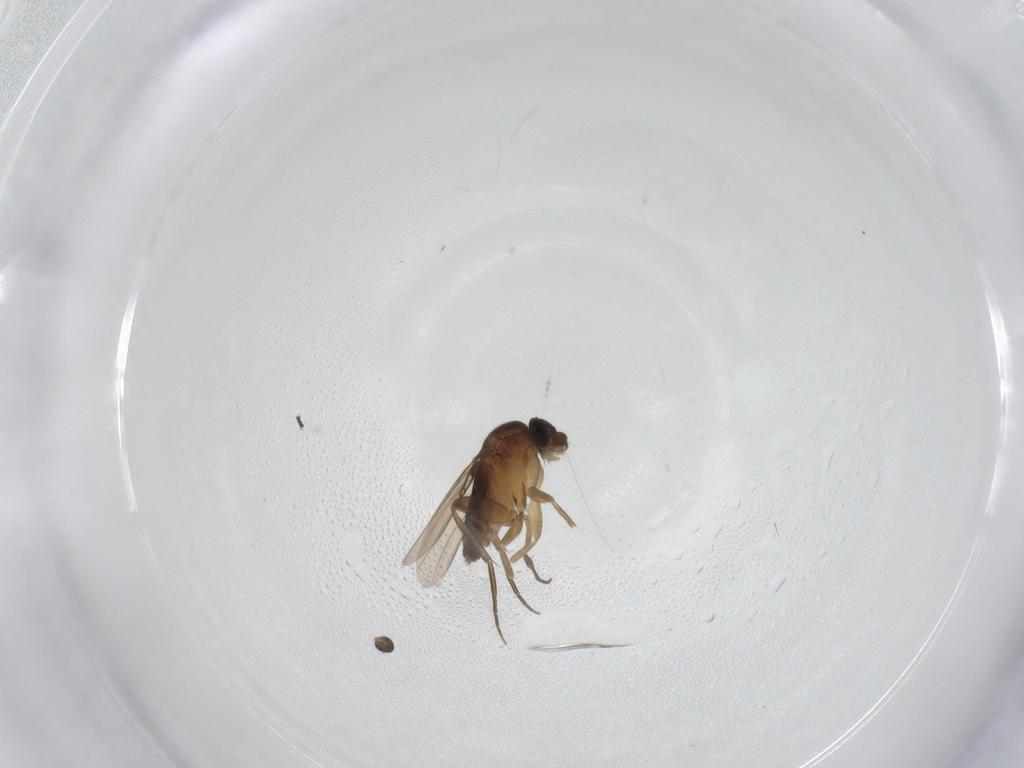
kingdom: Animalia
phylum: Arthropoda
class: Insecta
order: Diptera
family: Phoridae
